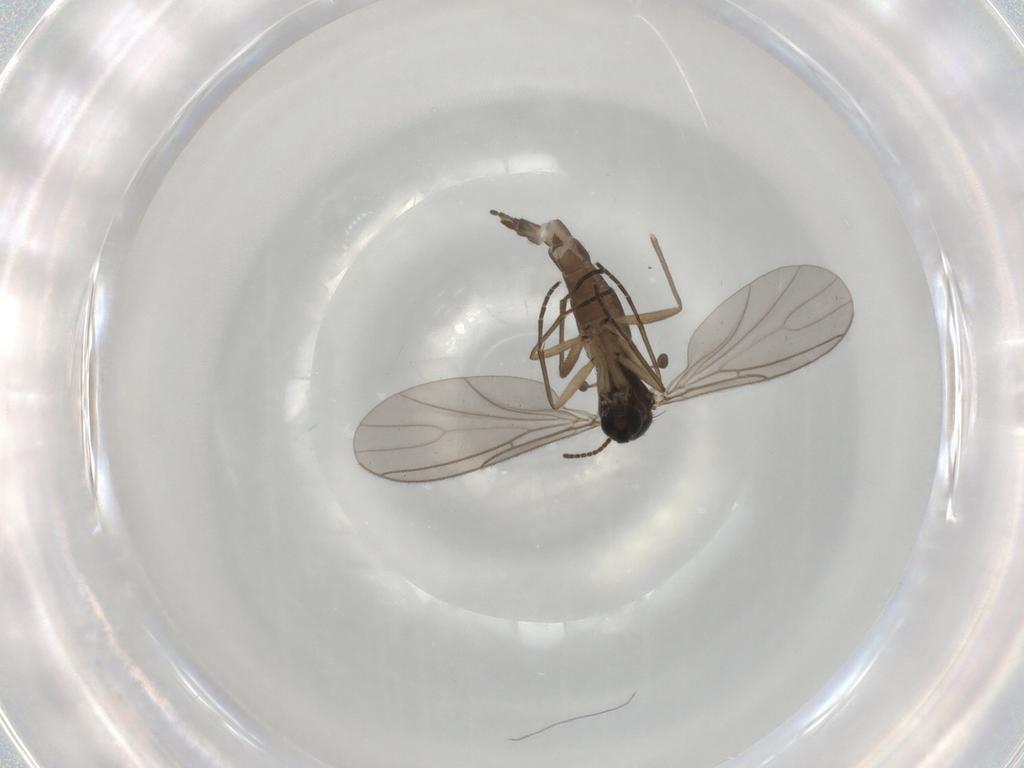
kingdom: Animalia
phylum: Arthropoda
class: Insecta
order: Diptera
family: Sciaridae
